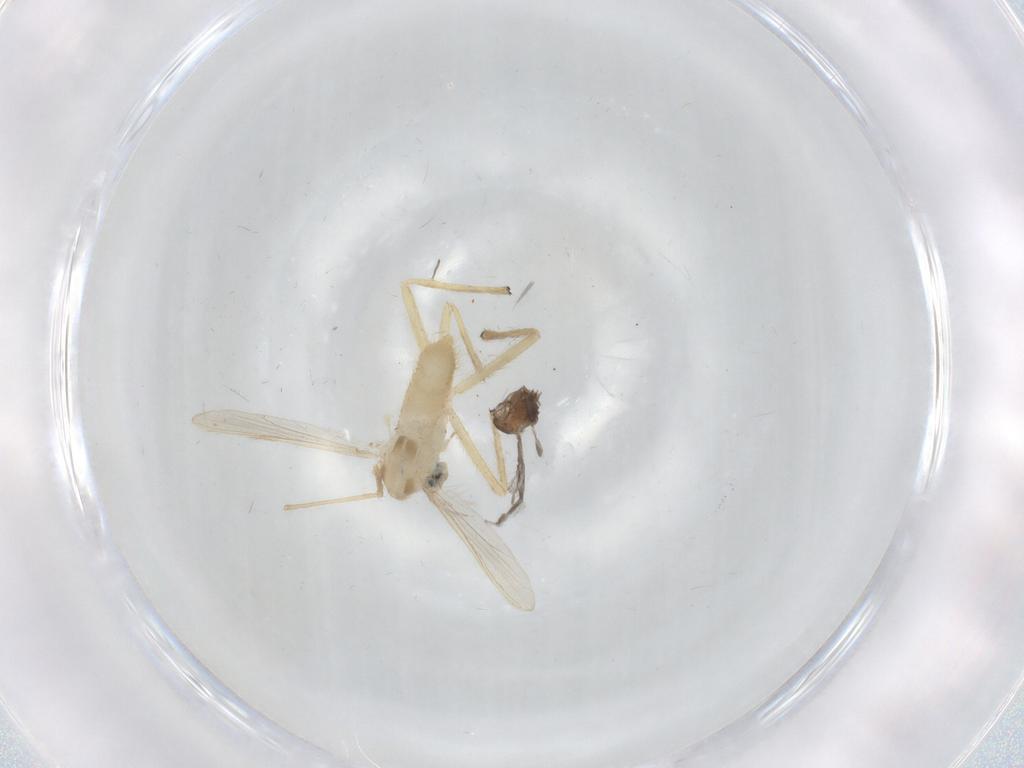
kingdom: Animalia
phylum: Arthropoda
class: Insecta
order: Diptera
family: Sciaridae
